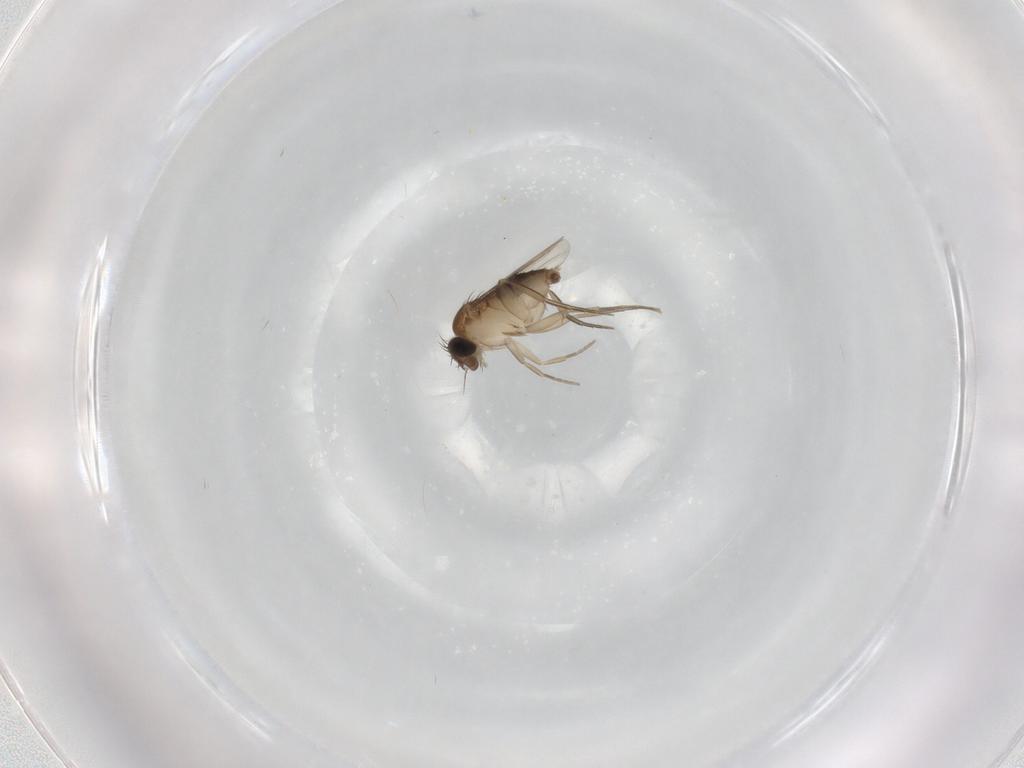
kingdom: Animalia
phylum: Arthropoda
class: Insecta
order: Diptera
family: Phoridae
